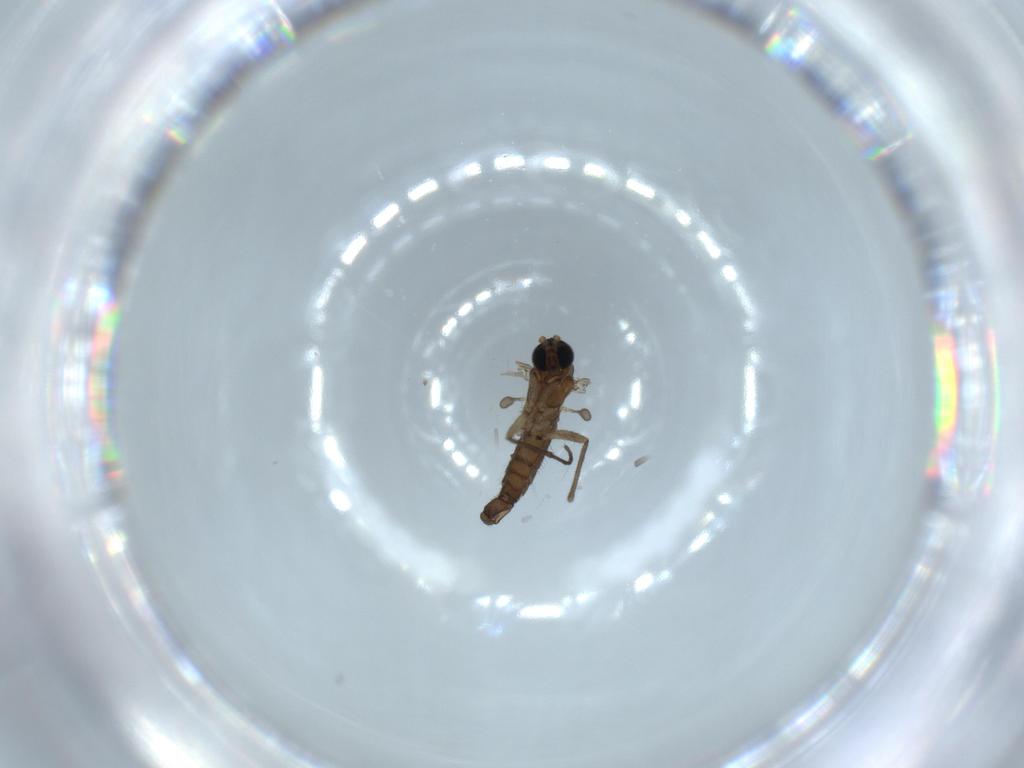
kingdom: Animalia
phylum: Arthropoda
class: Insecta
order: Diptera
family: Sciaridae
